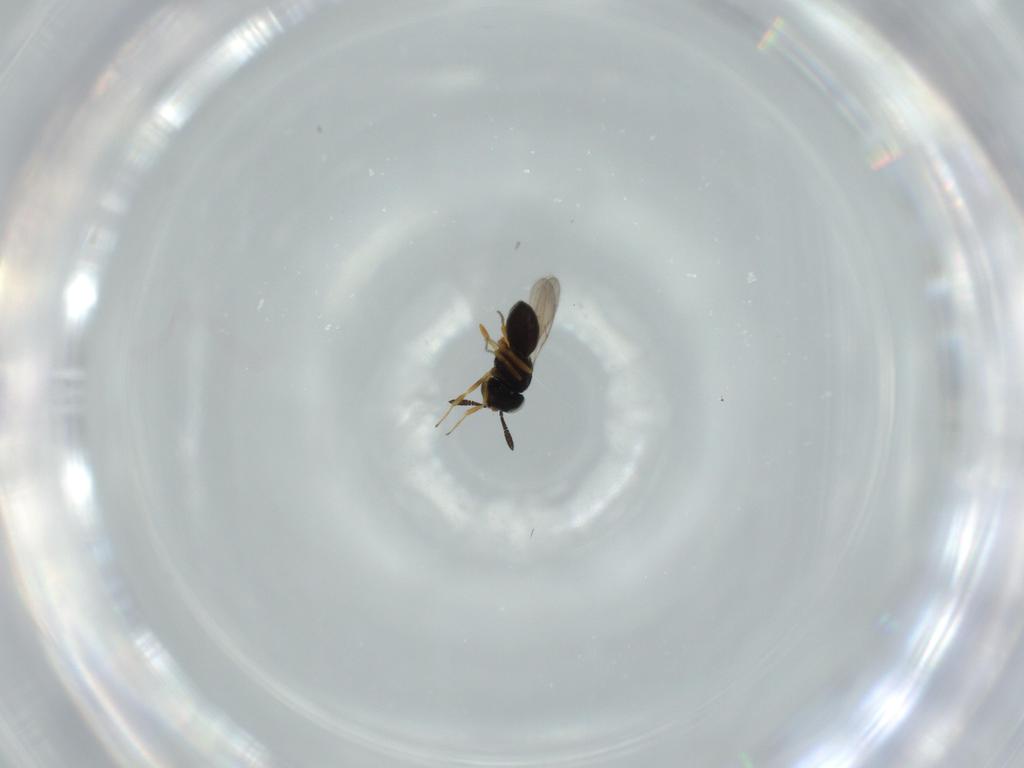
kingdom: Animalia
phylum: Arthropoda
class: Insecta
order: Hymenoptera
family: Scelionidae
